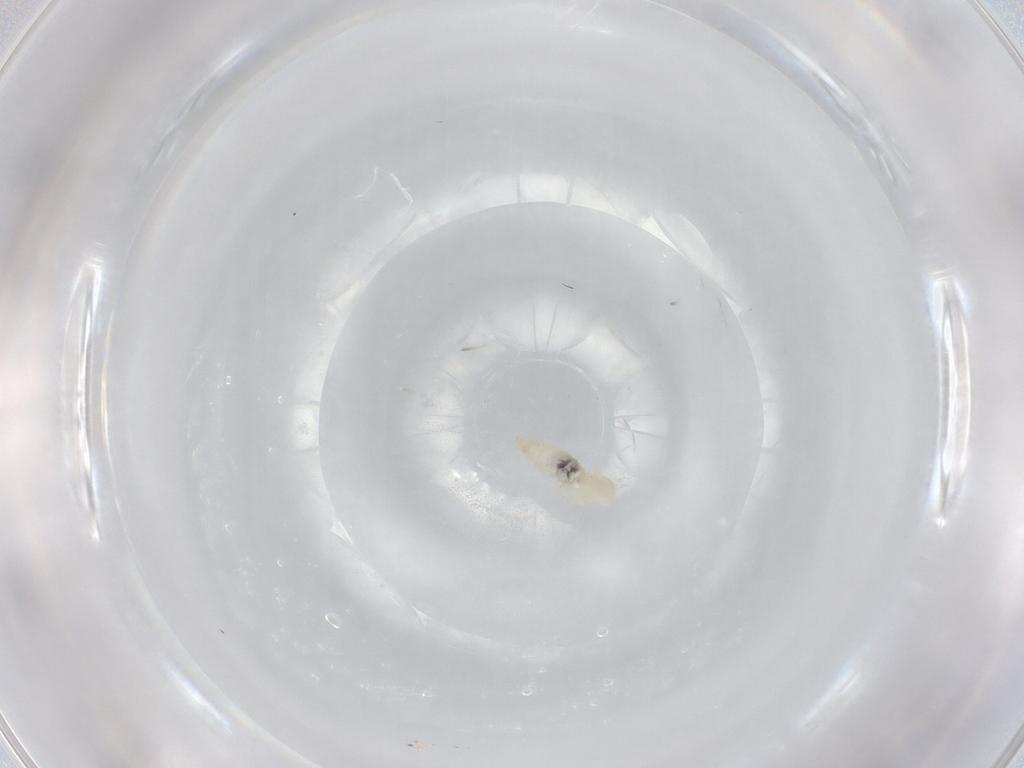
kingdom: Animalia
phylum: Arthropoda
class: Insecta
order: Diptera
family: Cecidomyiidae
